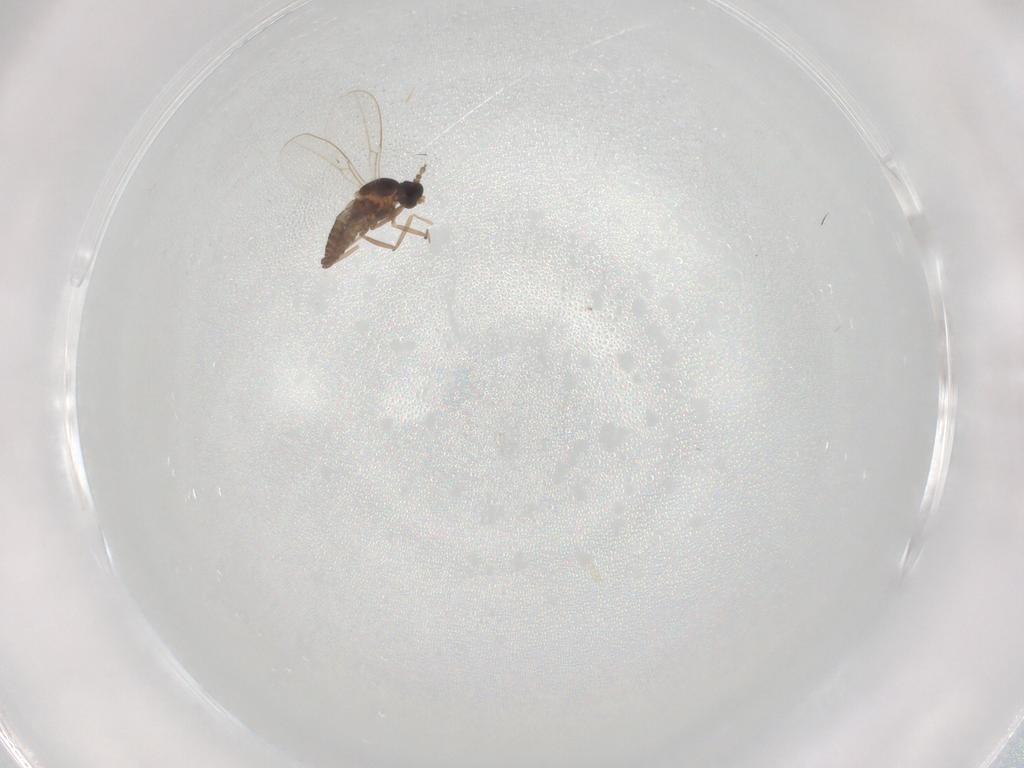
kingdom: Animalia
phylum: Arthropoda
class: Insecta
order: Diptera
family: Cecidomyiidae
